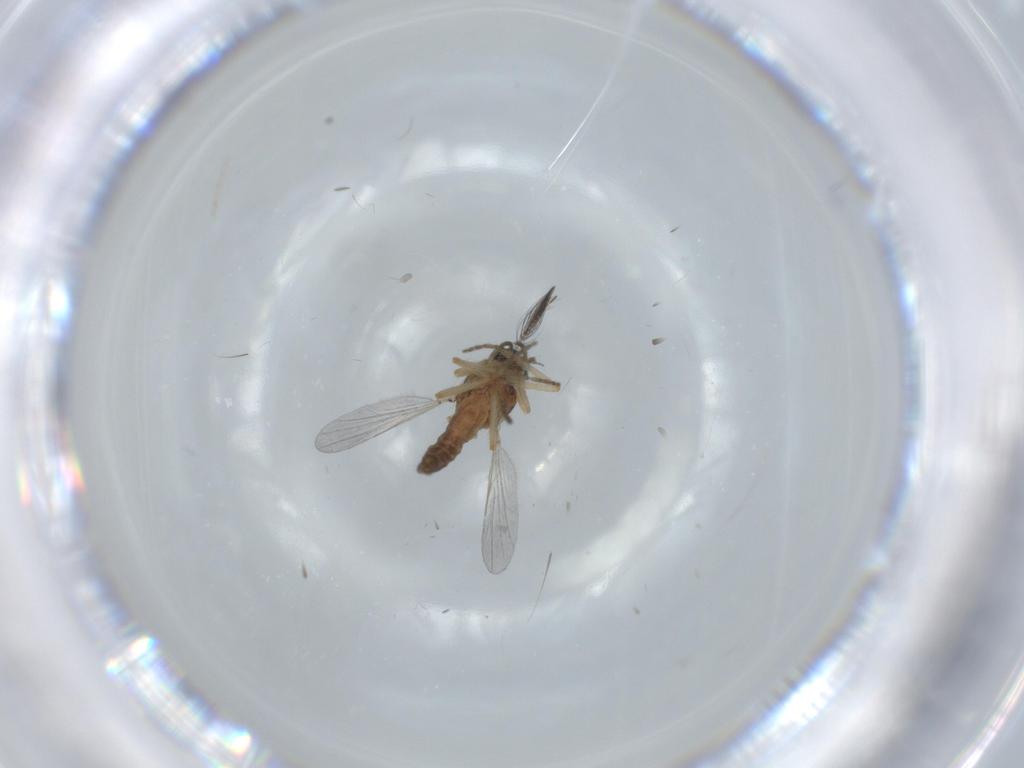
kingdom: Animalia
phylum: Arthropoda
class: Insecta
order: Diptera
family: Ceratopogonidae
